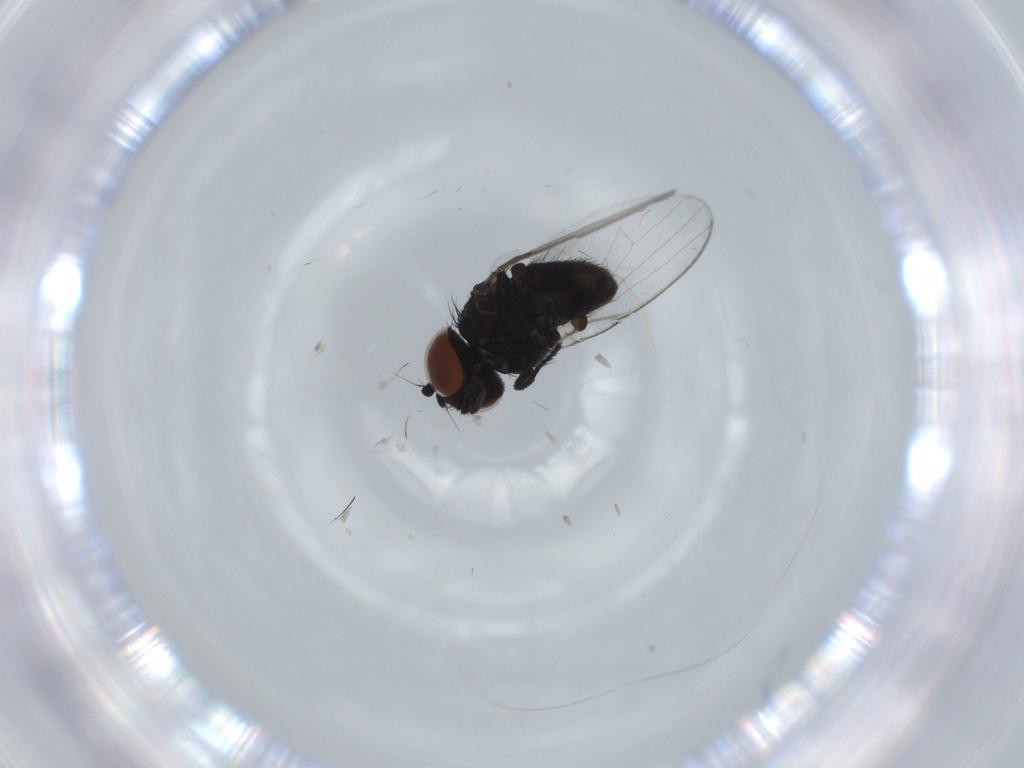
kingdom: Animalia
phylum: Arthropoda
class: Insecta
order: Diptera
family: Milichiidae
